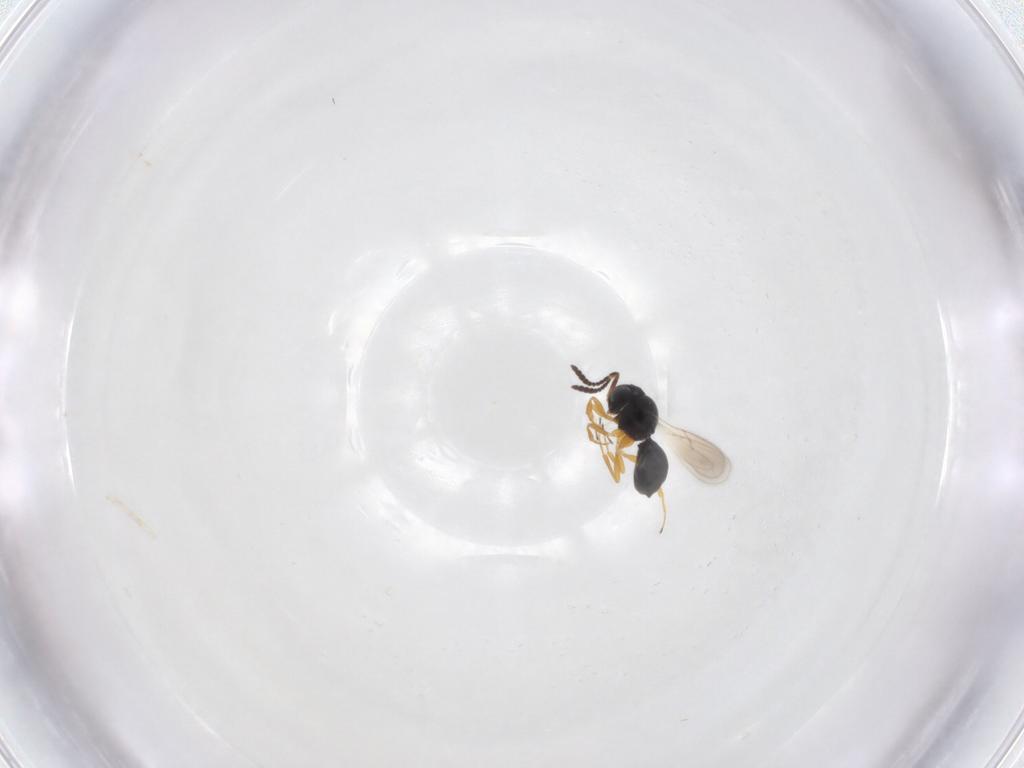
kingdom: Animalia
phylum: Arthropoda
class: Insecta
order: Hymenoptera
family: Scelionidae
